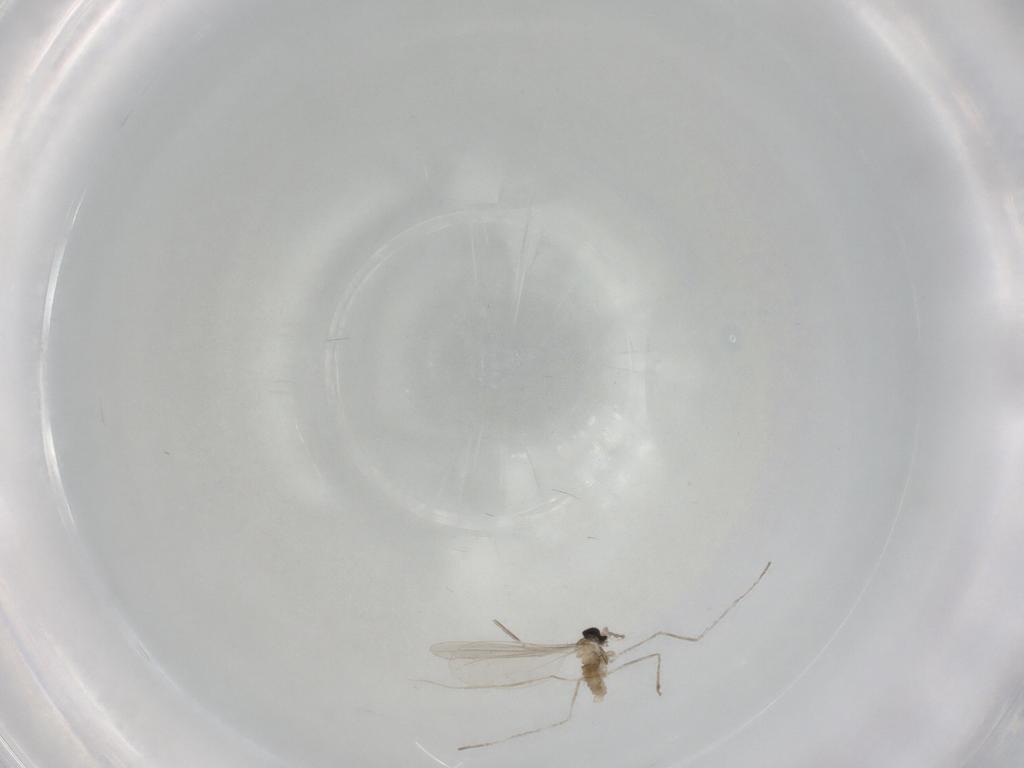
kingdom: Animalia
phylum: Arthropoda
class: Insecta
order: Diptera
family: Cecidomyiidae
